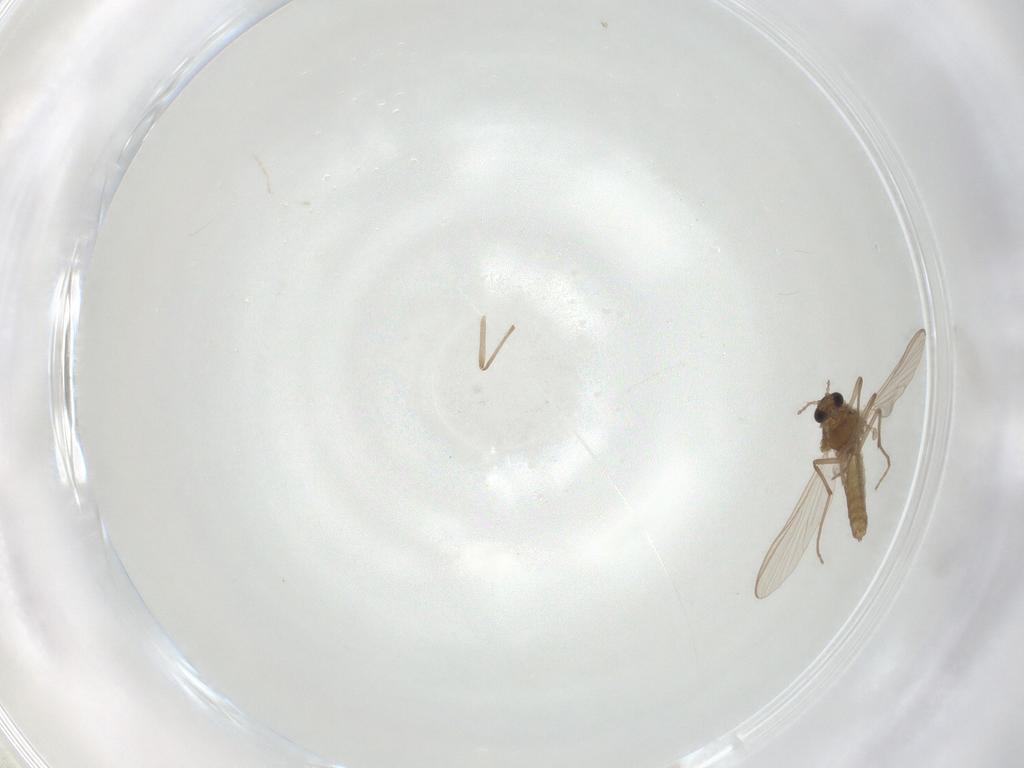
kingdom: Animalia
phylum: Arthropoda
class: Insecta
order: Diptera
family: Chironomidae
